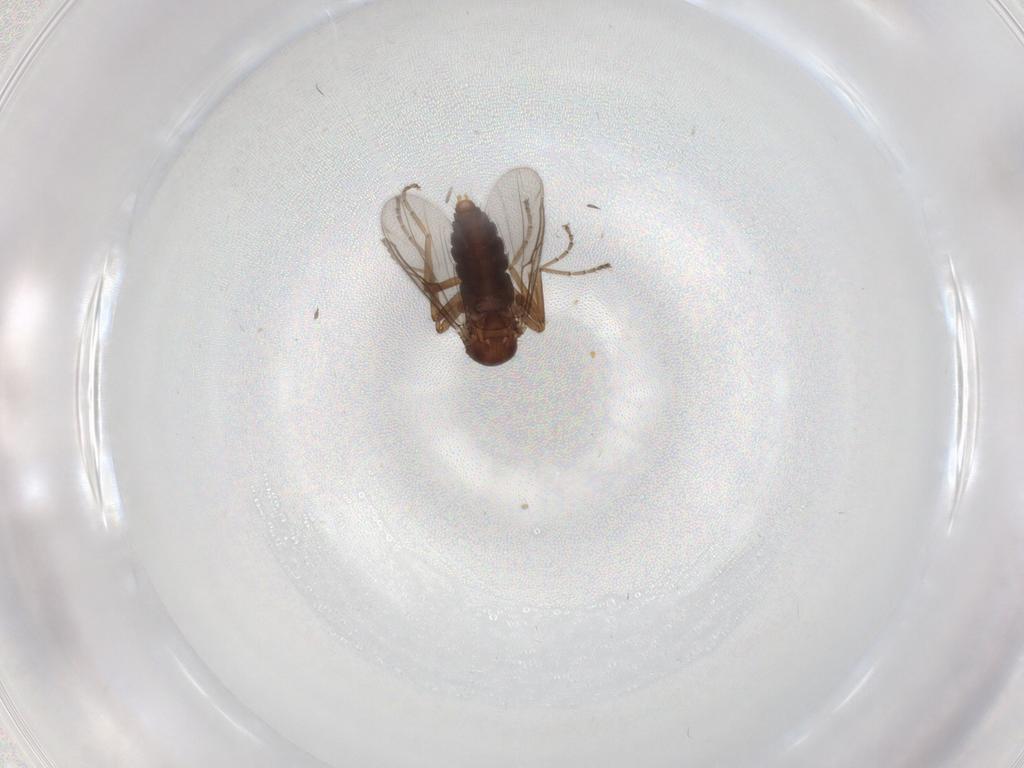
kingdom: Animalia
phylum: Arthropoda
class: Insecta
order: Diptera
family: Ceratopogonidae
